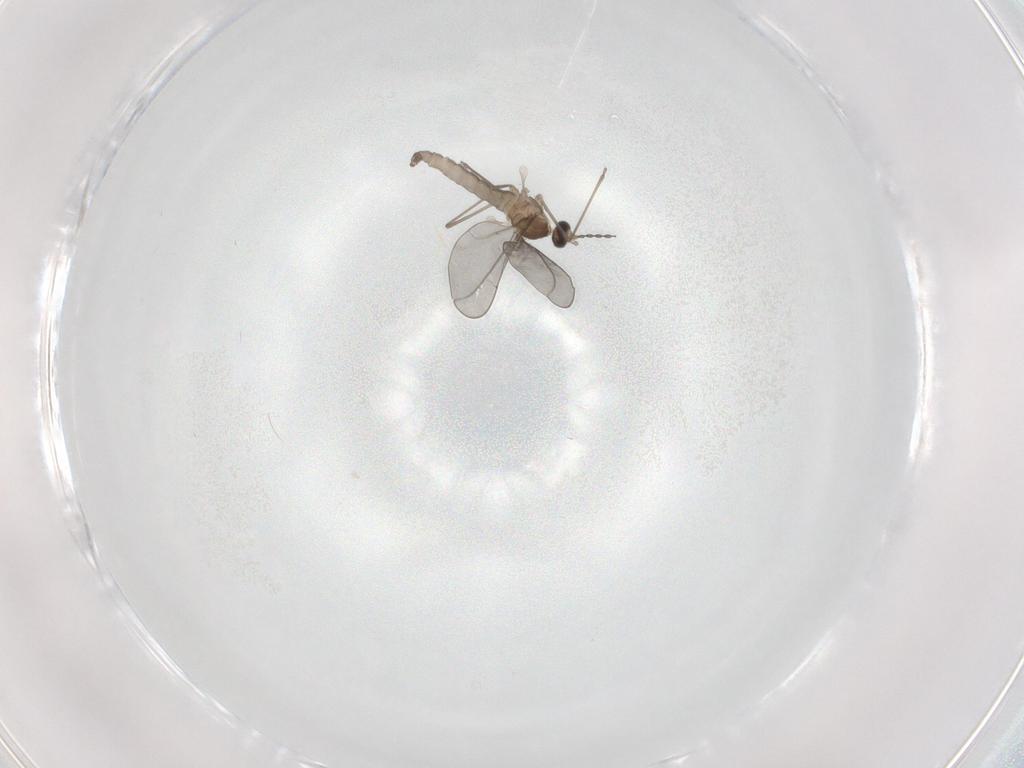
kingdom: Animalia
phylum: Arthropoda
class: Insecta
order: Diptera
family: Cecidomyiidae
